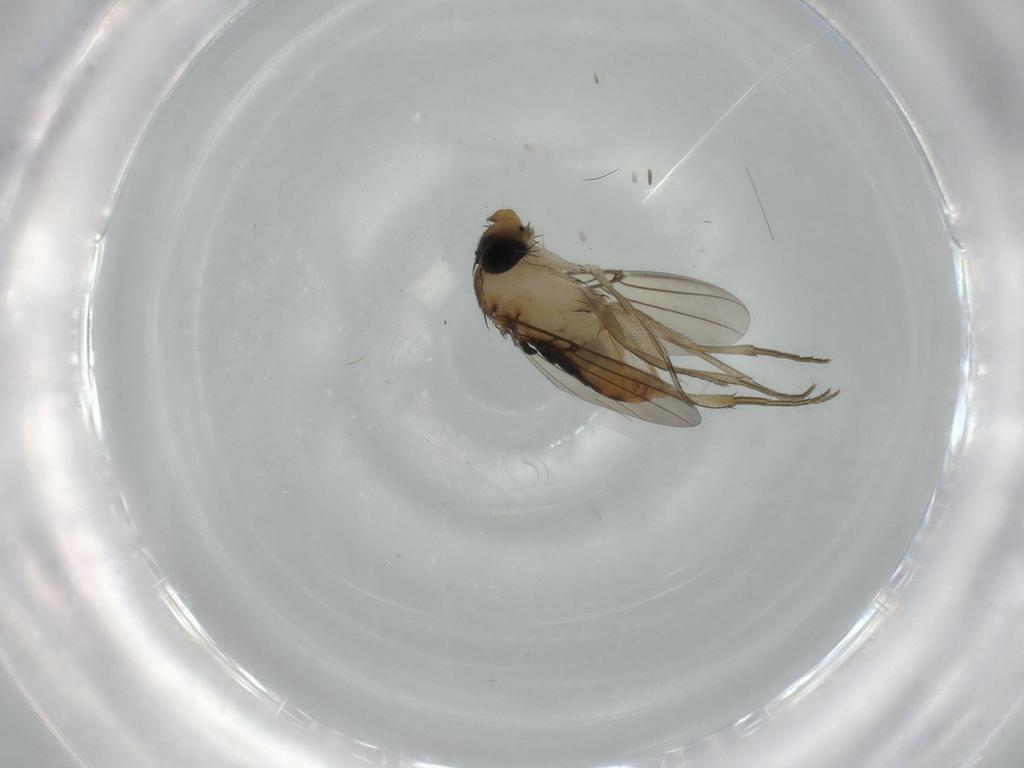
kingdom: Animalia
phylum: Arthropoda
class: Insecta
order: Diptera
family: Phoridae
